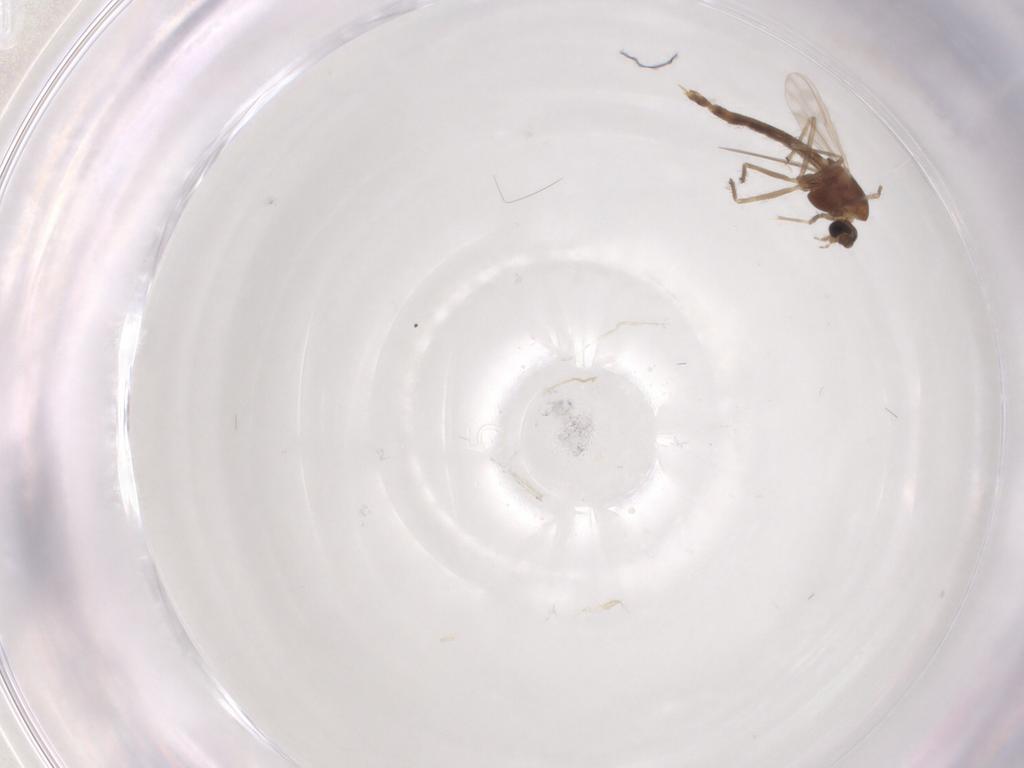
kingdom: Animalia
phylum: Arthropoda
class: Insecta
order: Diptera
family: Chironomidae
